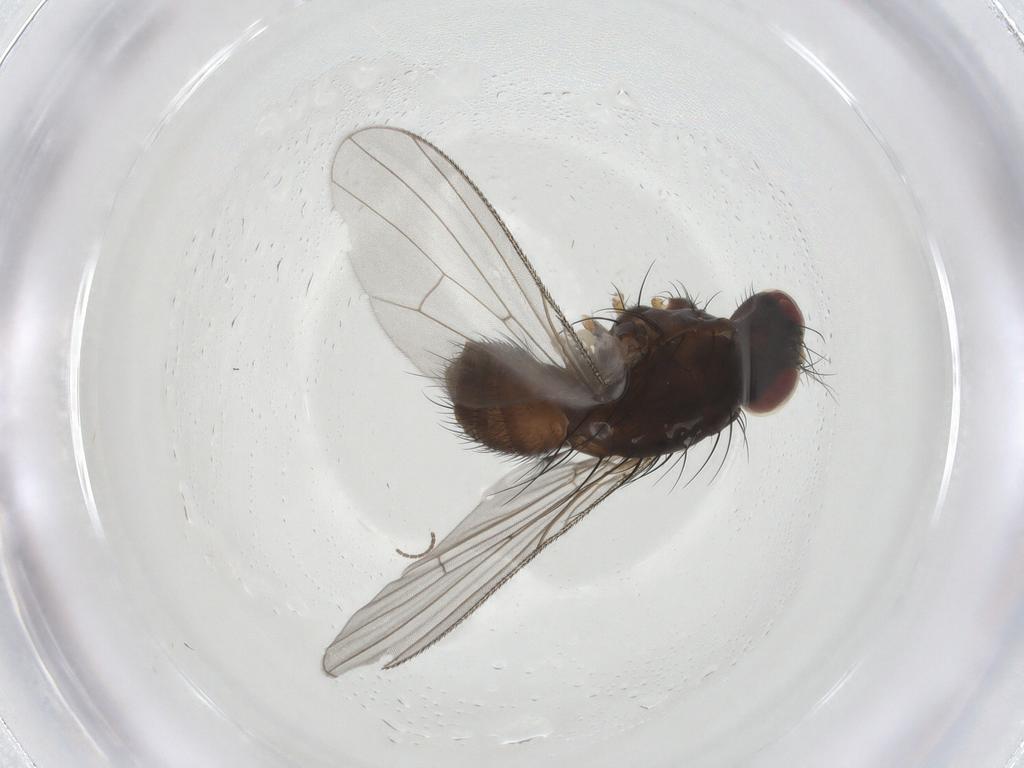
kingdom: Animalia
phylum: Arthropoda
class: Insecta
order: Diptera
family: Muscidae
